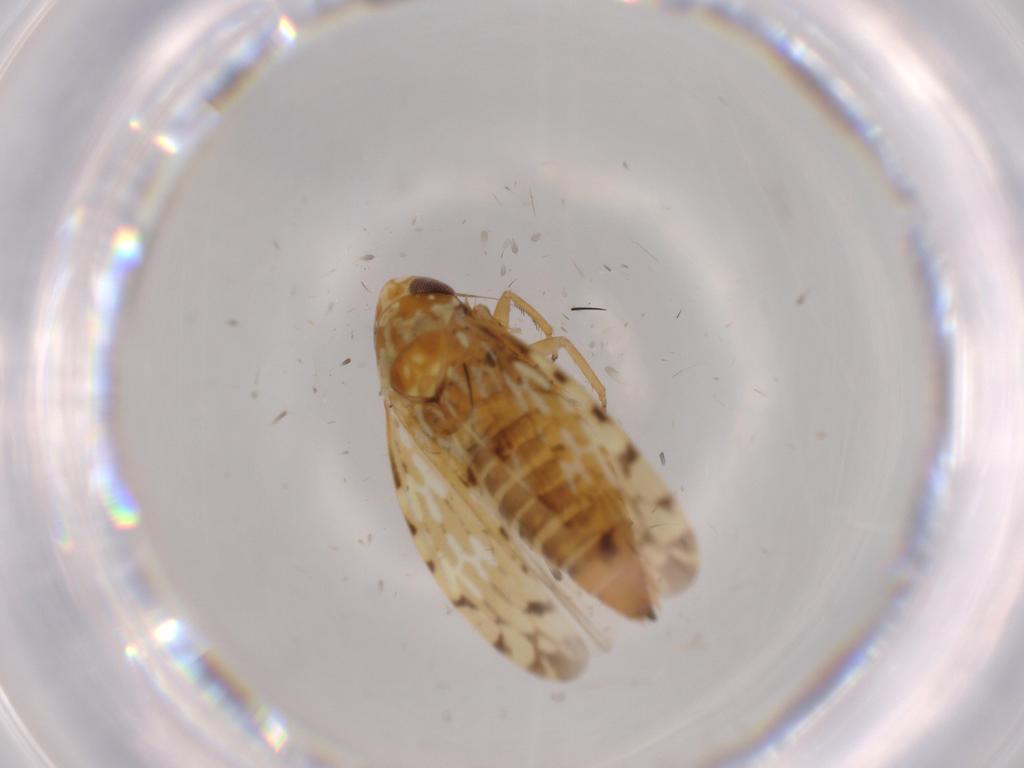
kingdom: Animalia
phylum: Arthropoda
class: Insecta
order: Hemiptera
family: Cicadellidae
